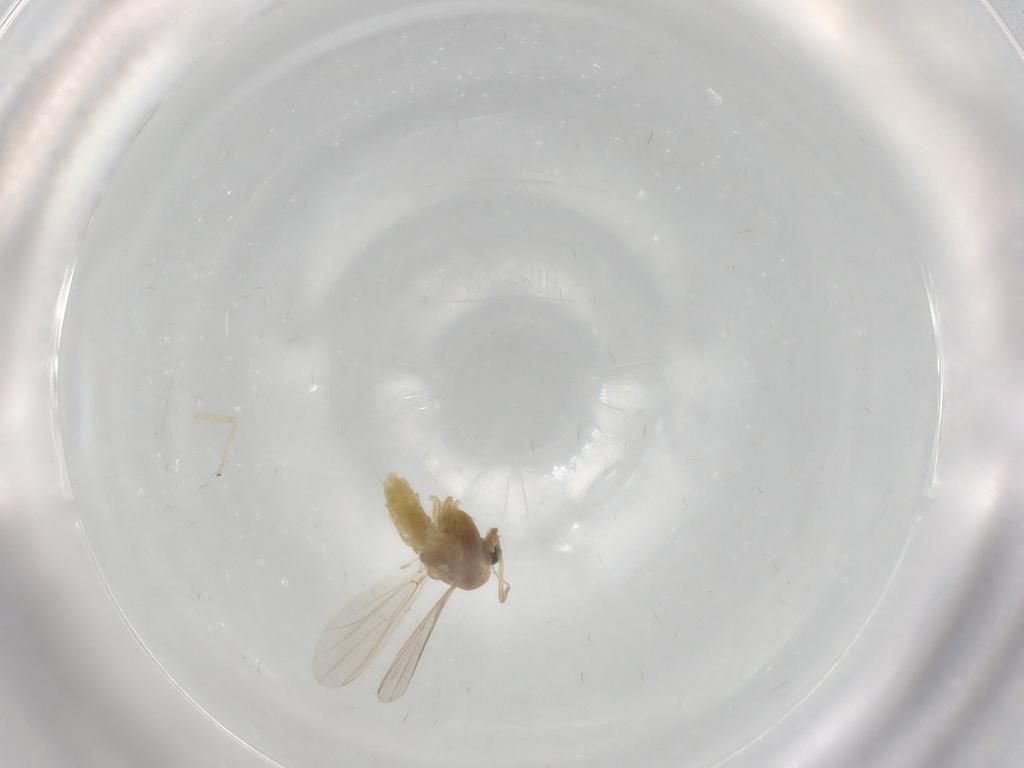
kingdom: Animalia
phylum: Arthropoda
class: Insecta
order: Diptera
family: Chironomidae
